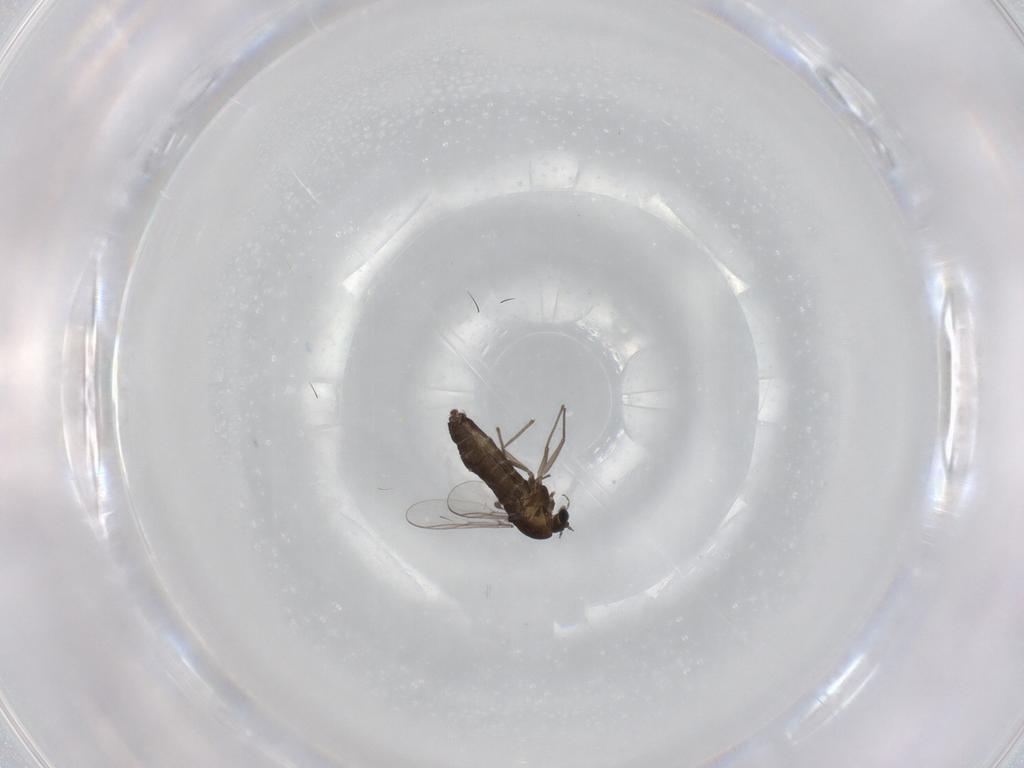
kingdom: Animalia
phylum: Arthropoda
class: Insecta
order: Diptera
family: Chironomidae
